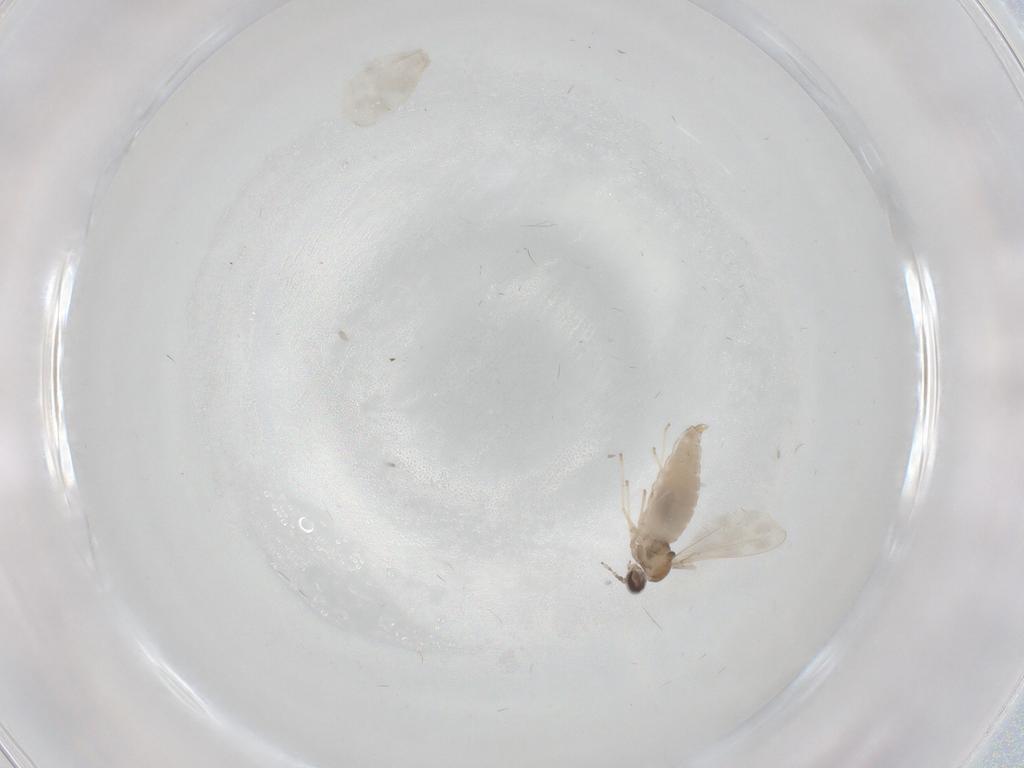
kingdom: Animalia
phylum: Arthropoda
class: Insecta
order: Diptera
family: Cecidomyiidae
